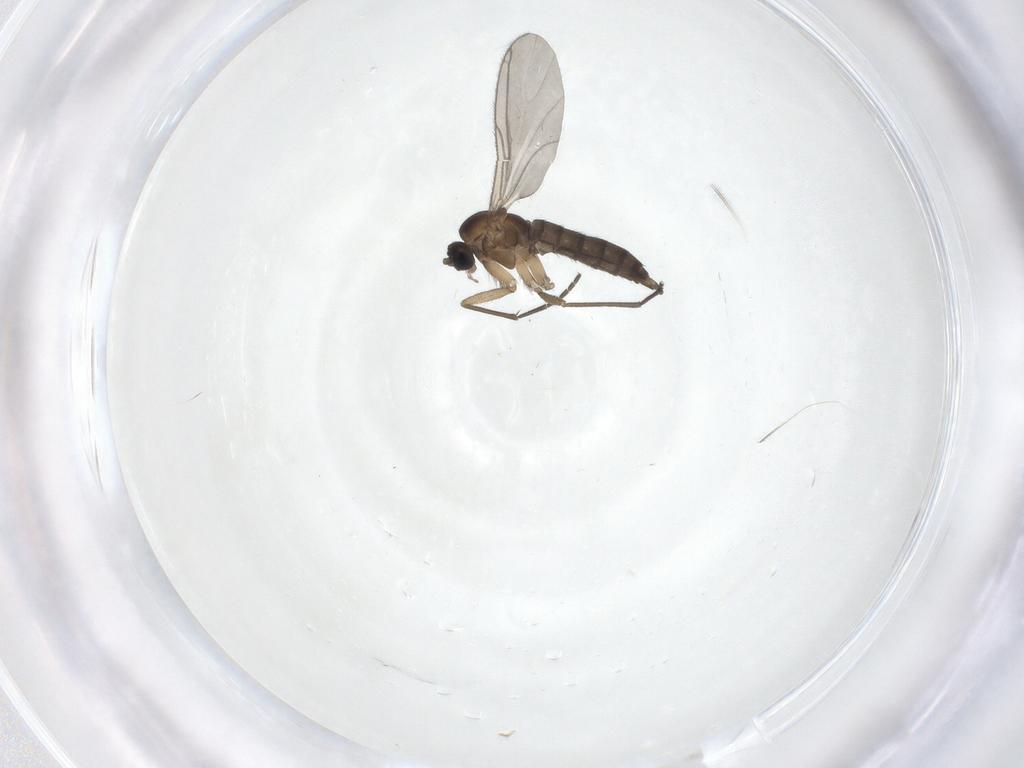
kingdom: Animalia
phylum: Arthropoda
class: Insecta
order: Diptera
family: Sciaridae
